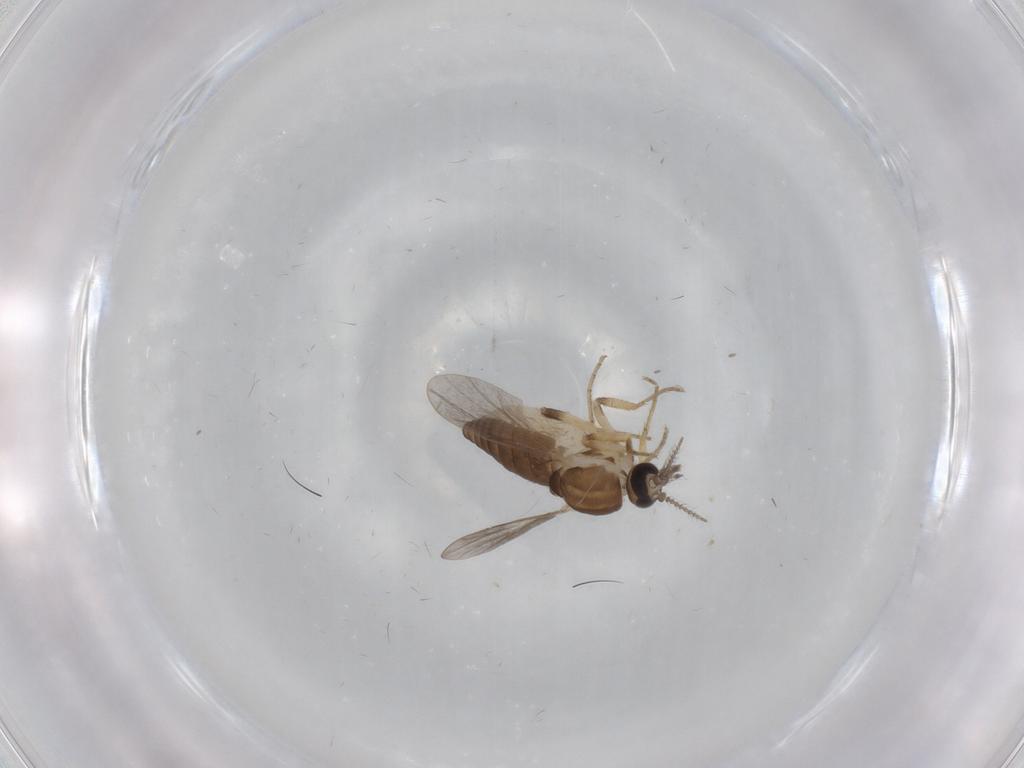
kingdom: Animalia
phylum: Arthropoda
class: Insecta
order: Diptera
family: Ceratopogonidae
